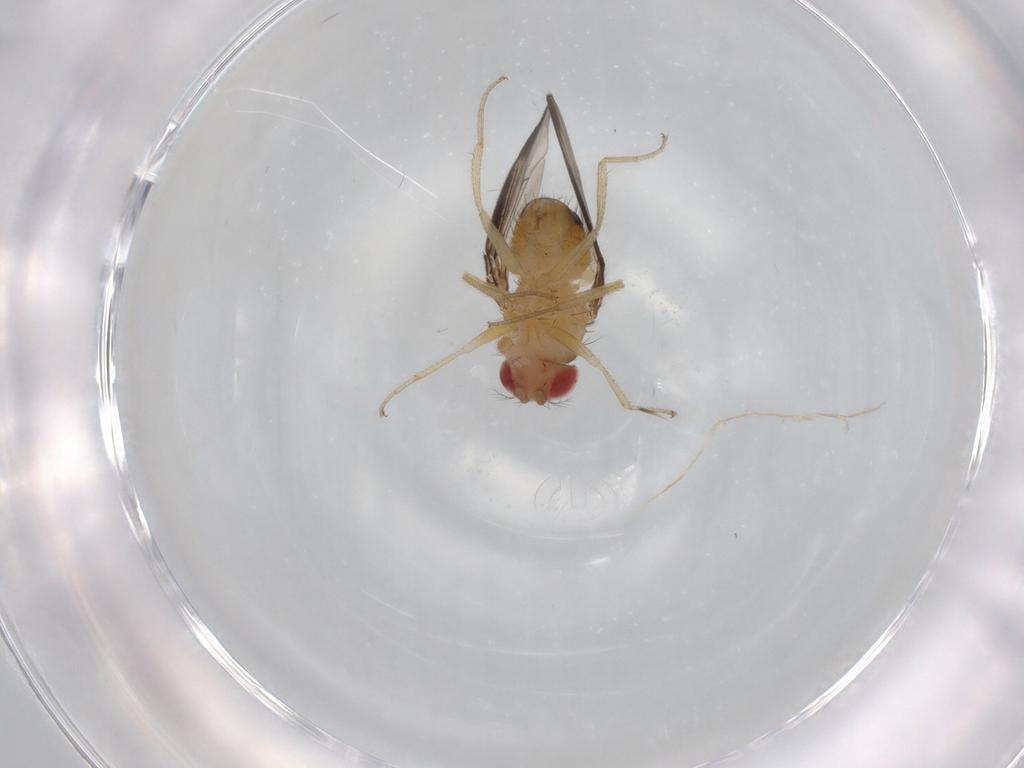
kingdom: Animalia
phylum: Arthropoda
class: Insecta
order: Diptera
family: Drosophilidae
